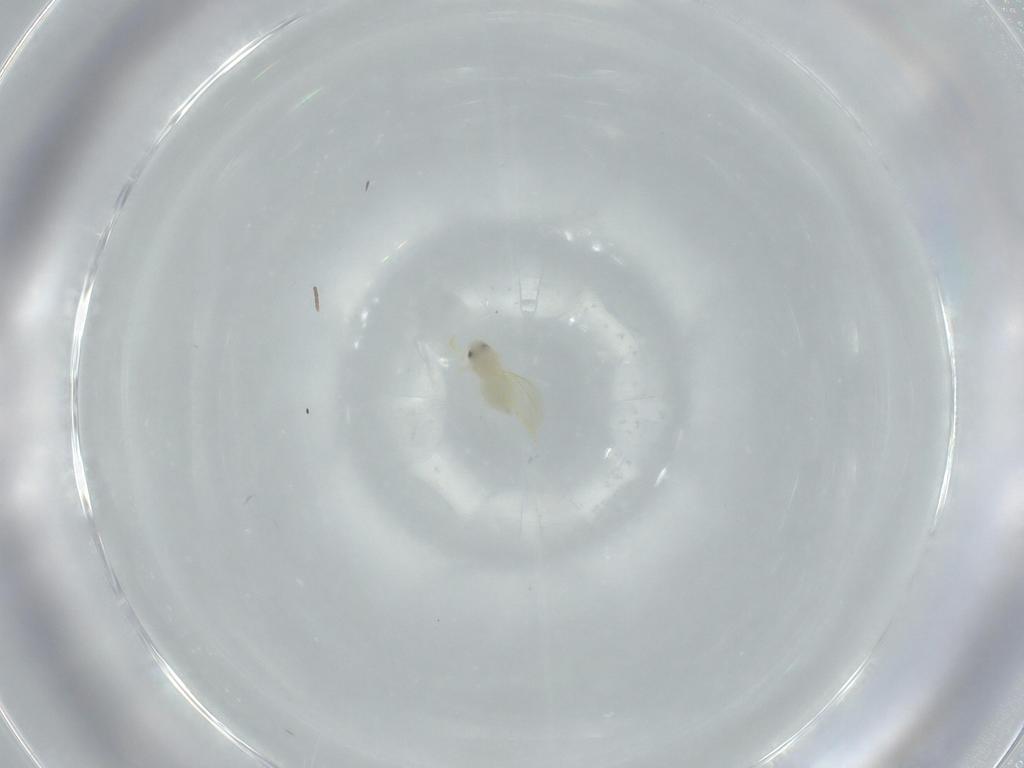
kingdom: Animalia
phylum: Arthropoda
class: Insecta
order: Hemiptera
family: Aleyrodidae
